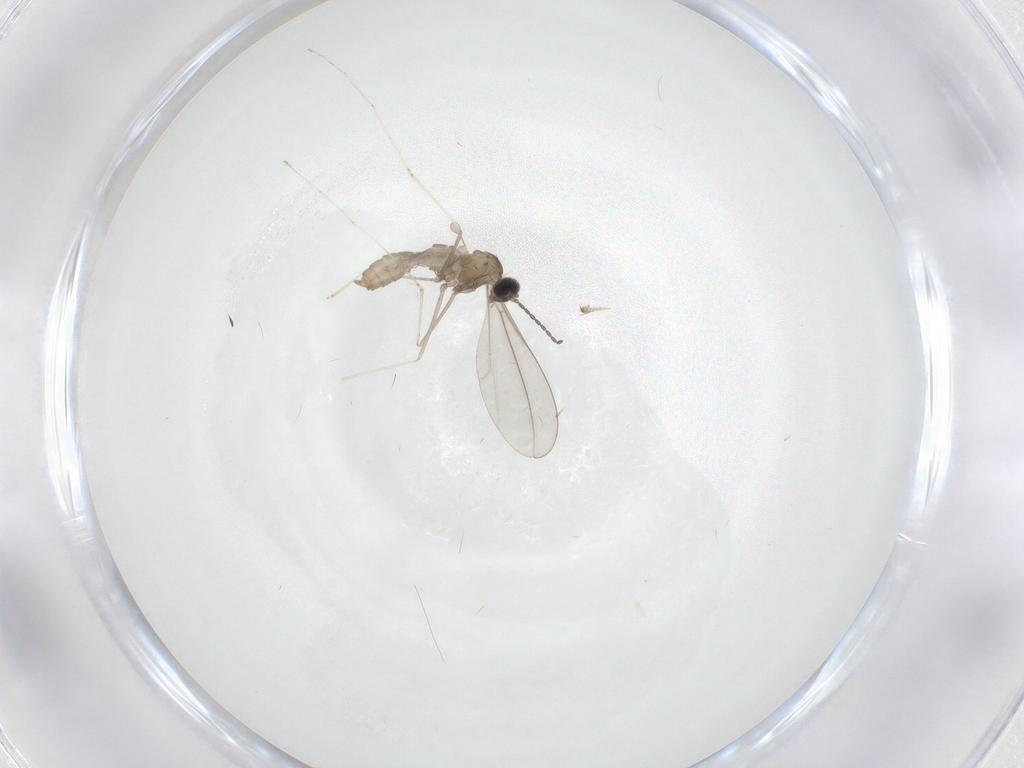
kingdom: Animalia
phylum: Arthropoda
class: Insecta
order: Diptera
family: Cecidomyiidae
